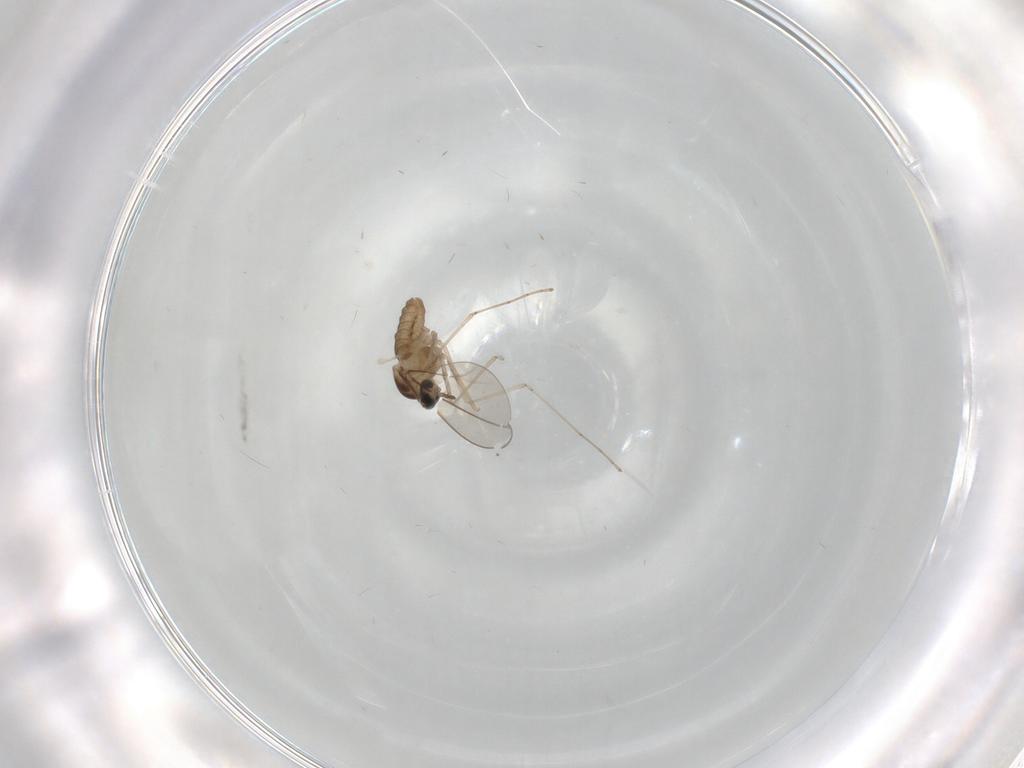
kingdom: Animalia
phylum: Arthropoda
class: Insecta
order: Diptera
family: Cecidomyiidae
